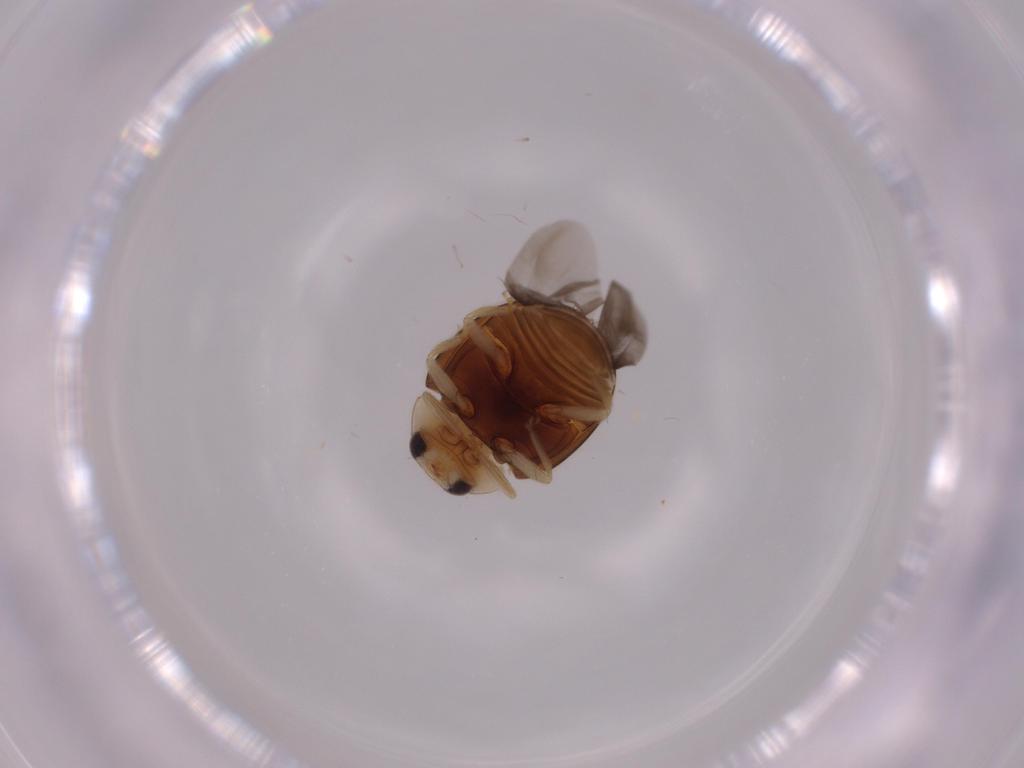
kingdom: Animalia
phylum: Arthropoda
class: Insecta
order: Coleoptera
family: Coccinellidae
